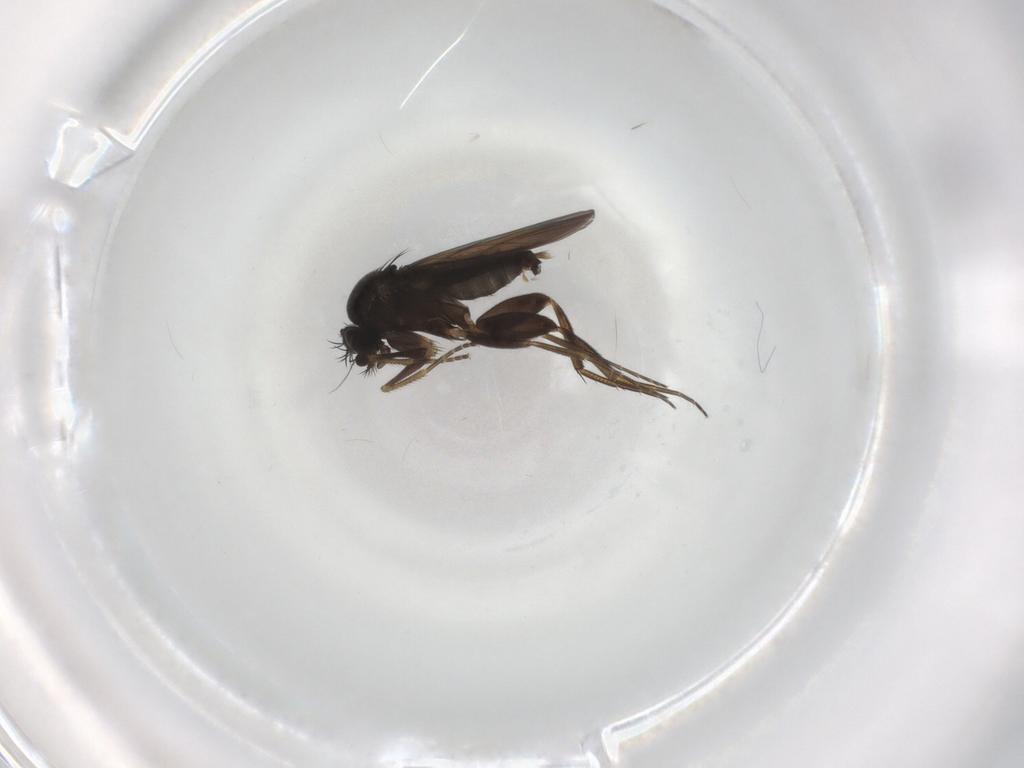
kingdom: Animalia
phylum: Arthropoda
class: Insecta
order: Diptera
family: Phoridae
